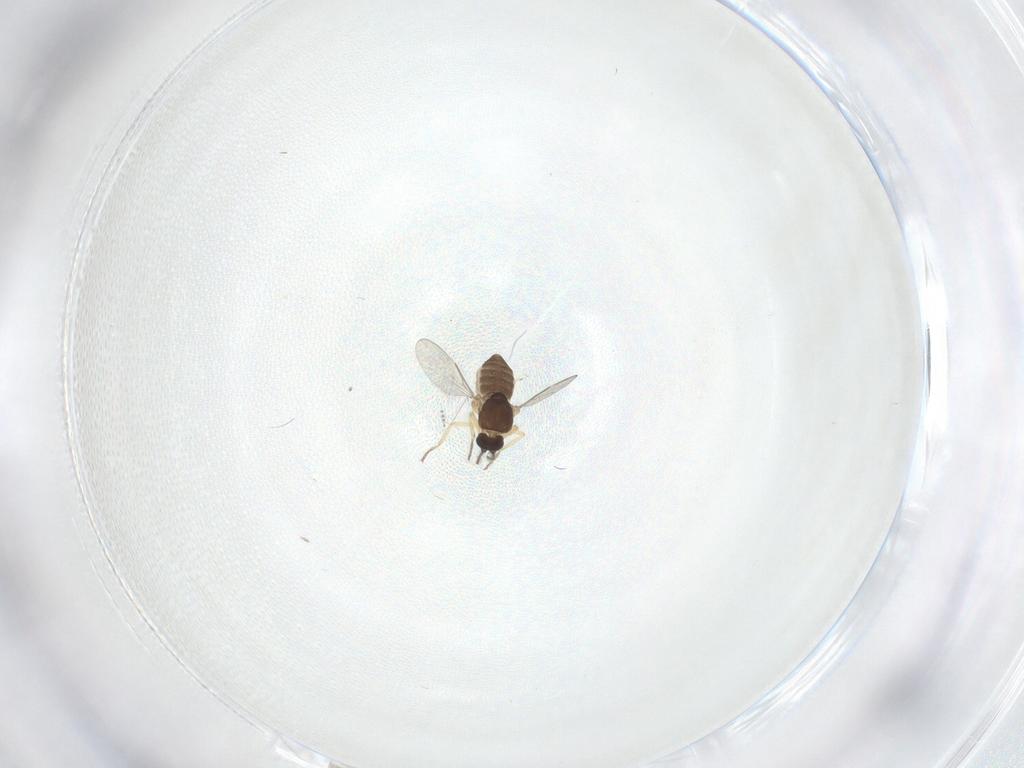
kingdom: Animalia
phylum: Arthropoda
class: Insecta
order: Diptera
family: Ceratopogonidae
